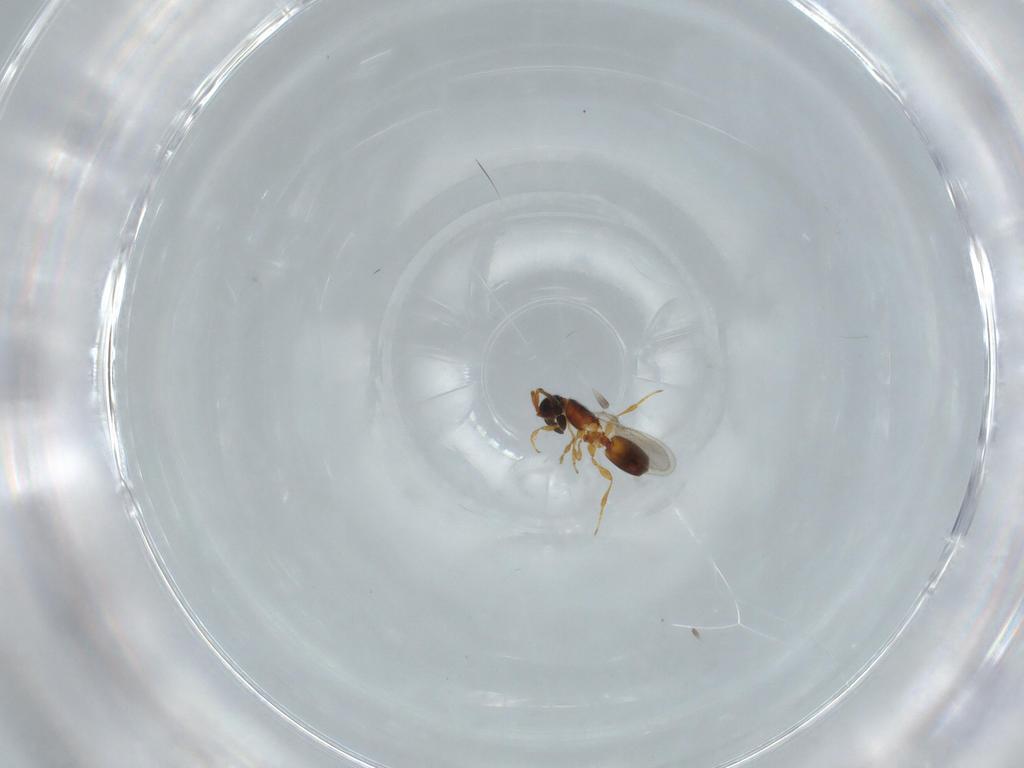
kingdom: Animalia
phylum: Arthropoda
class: Insecta
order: Hymenoptera
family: Diapriidae
